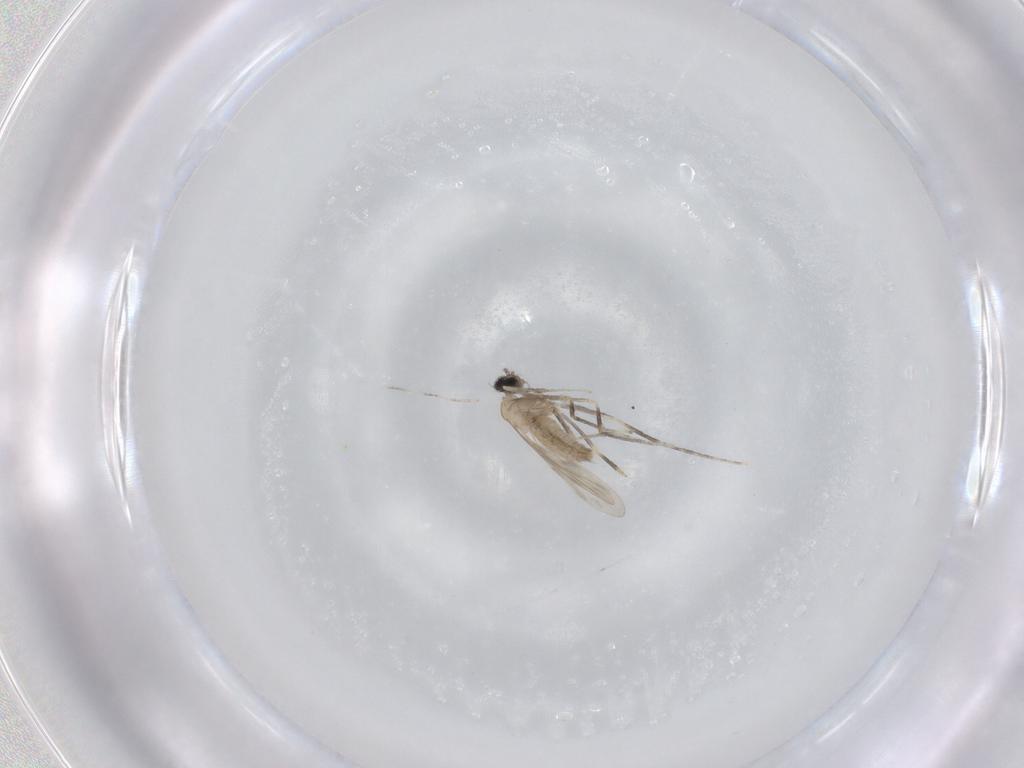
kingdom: Animalia
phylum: Arthropoda
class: Insecta
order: Diptera
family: Cecidomyiidae
